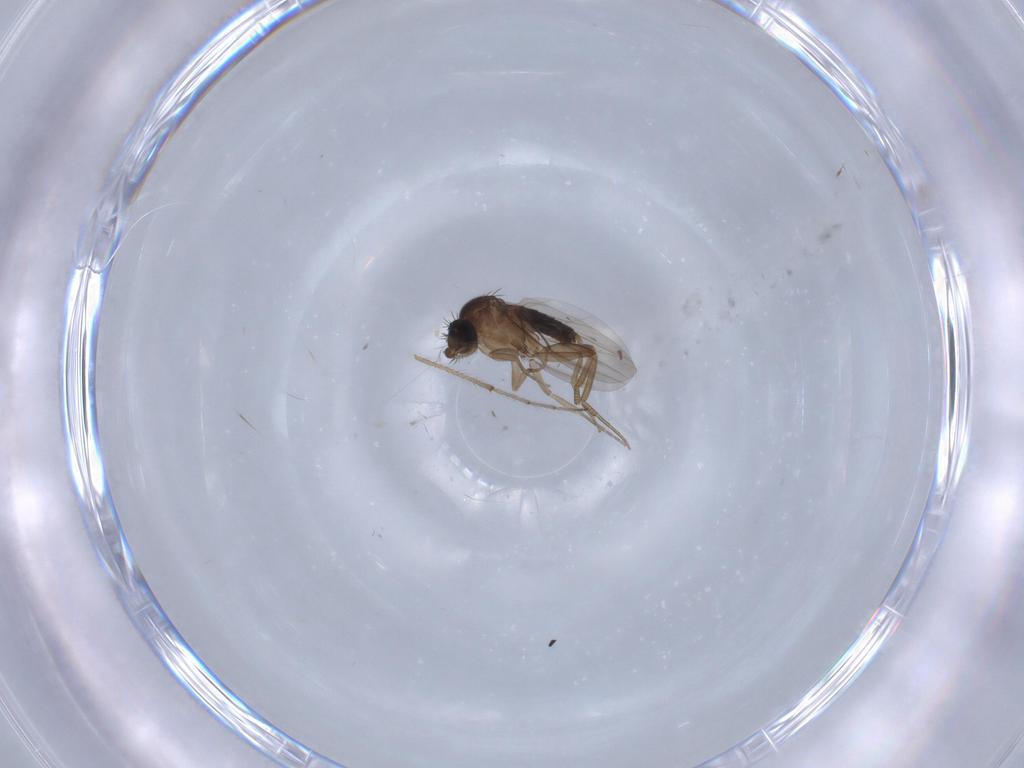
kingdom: Animalia
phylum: Arthropoda
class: Insecta
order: Diptera
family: Phoridae
